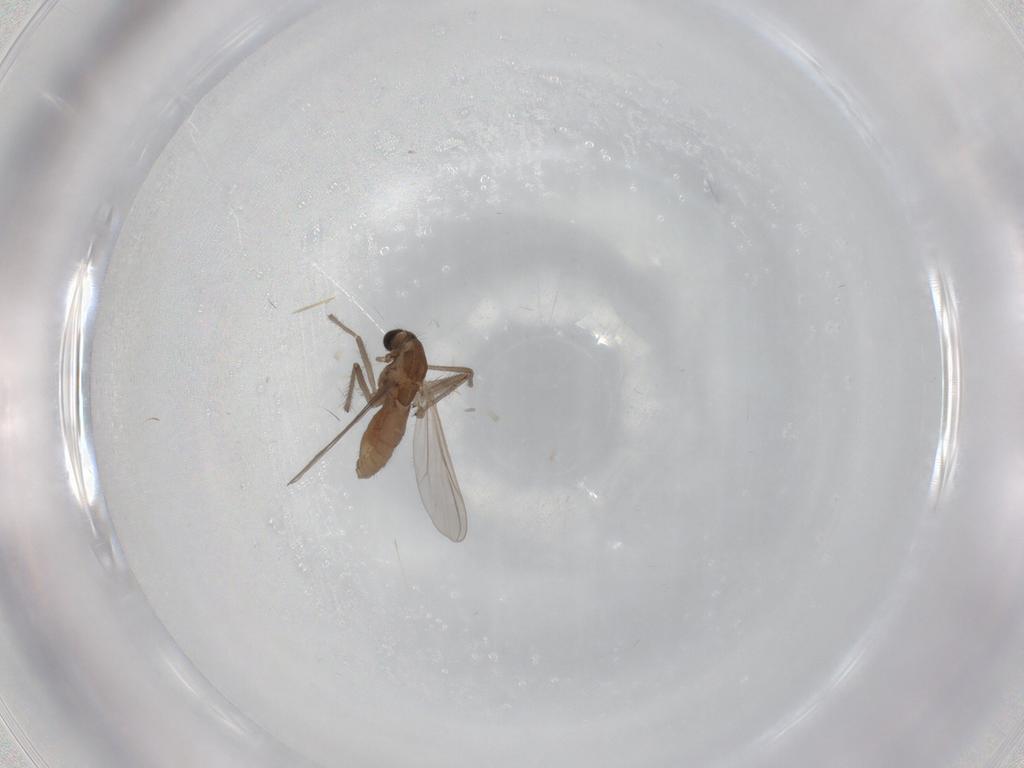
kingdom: Animalia
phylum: Arthropoda
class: Insecta
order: Diptera
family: Chironomidae
